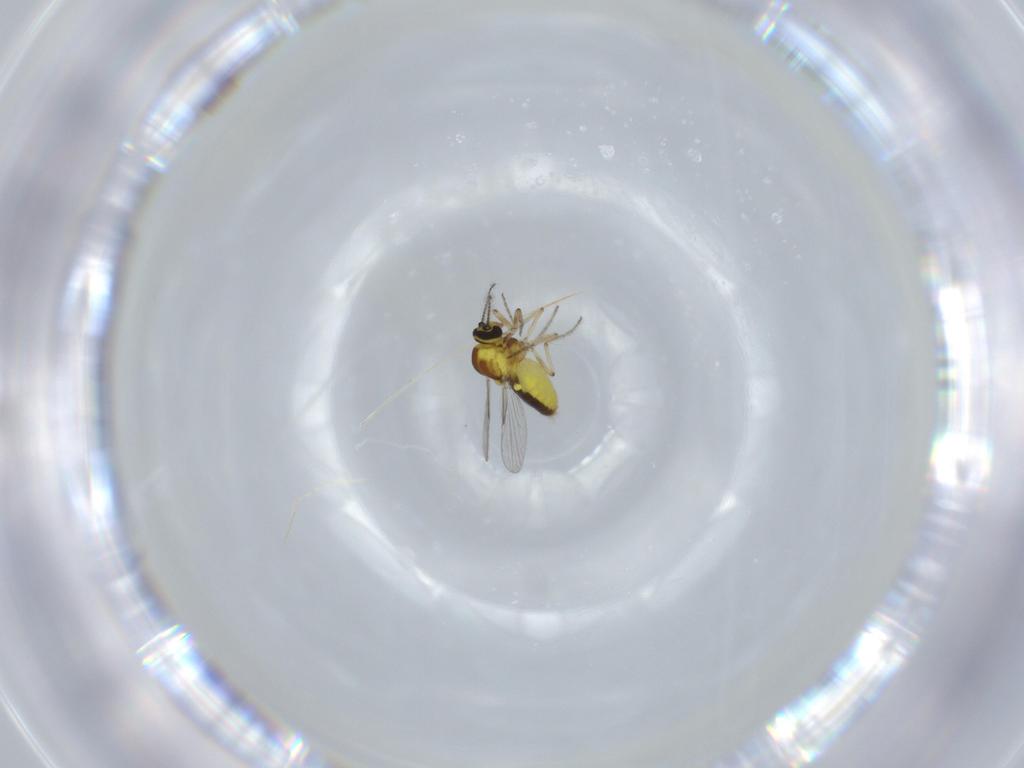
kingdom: Animalia
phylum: Arthropoda
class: Insecta
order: Diptera
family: Ceratopogonidae
